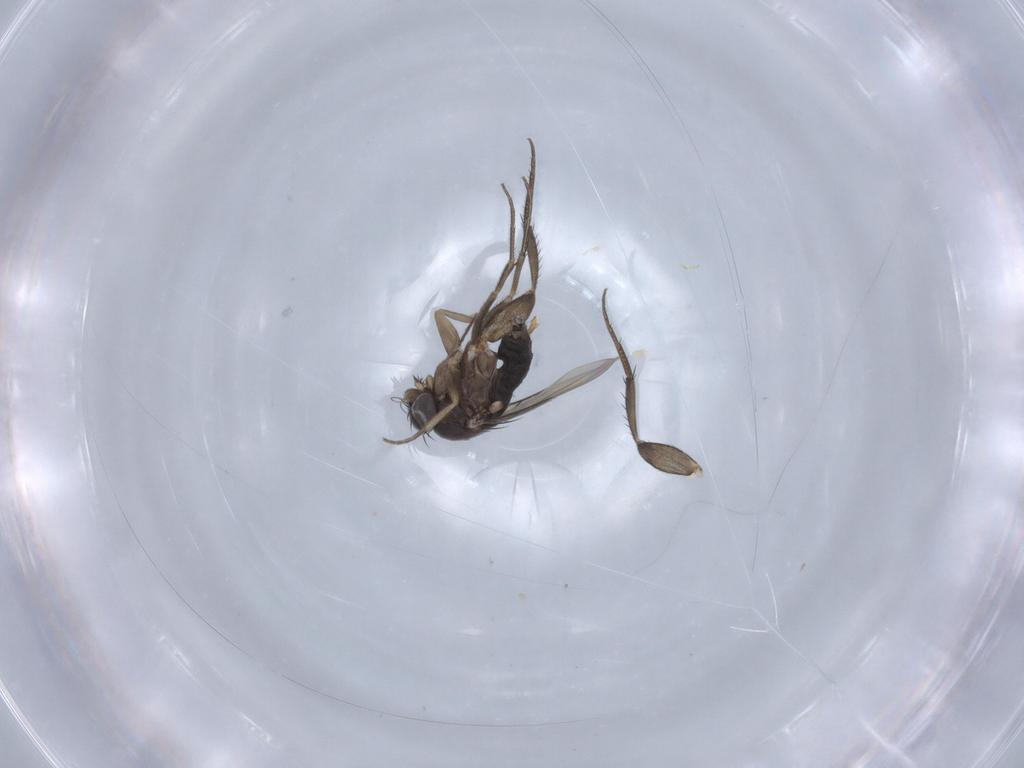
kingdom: Animalia
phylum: Arthropoda
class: Insecta
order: Diptera
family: Phoridae
